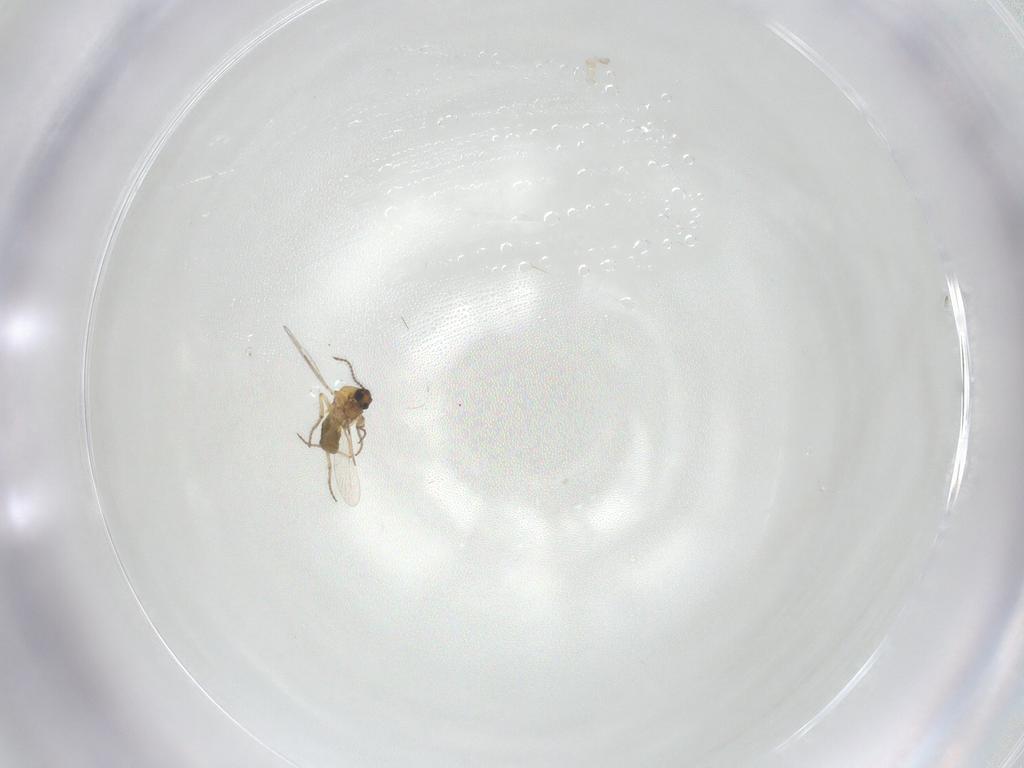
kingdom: Animalia
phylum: Arthropoda
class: Insecta
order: Diptera
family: Ceratopogonidae
